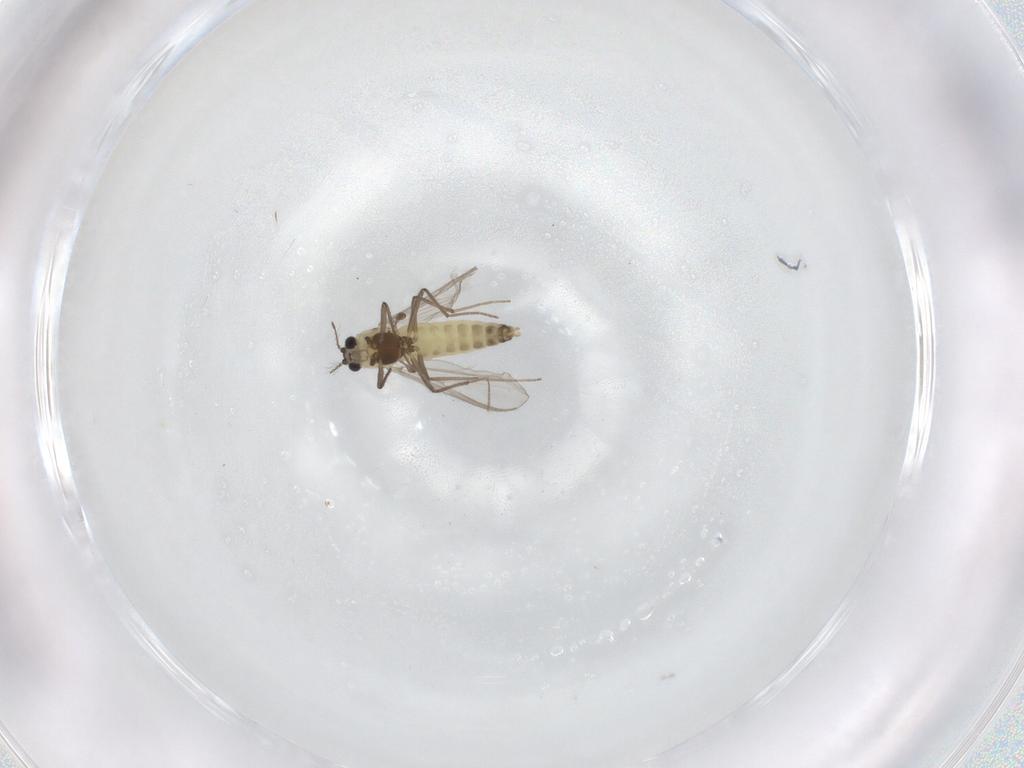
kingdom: Animalia
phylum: Arthropoda
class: Insecta
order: Diptera
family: Chironomidae
